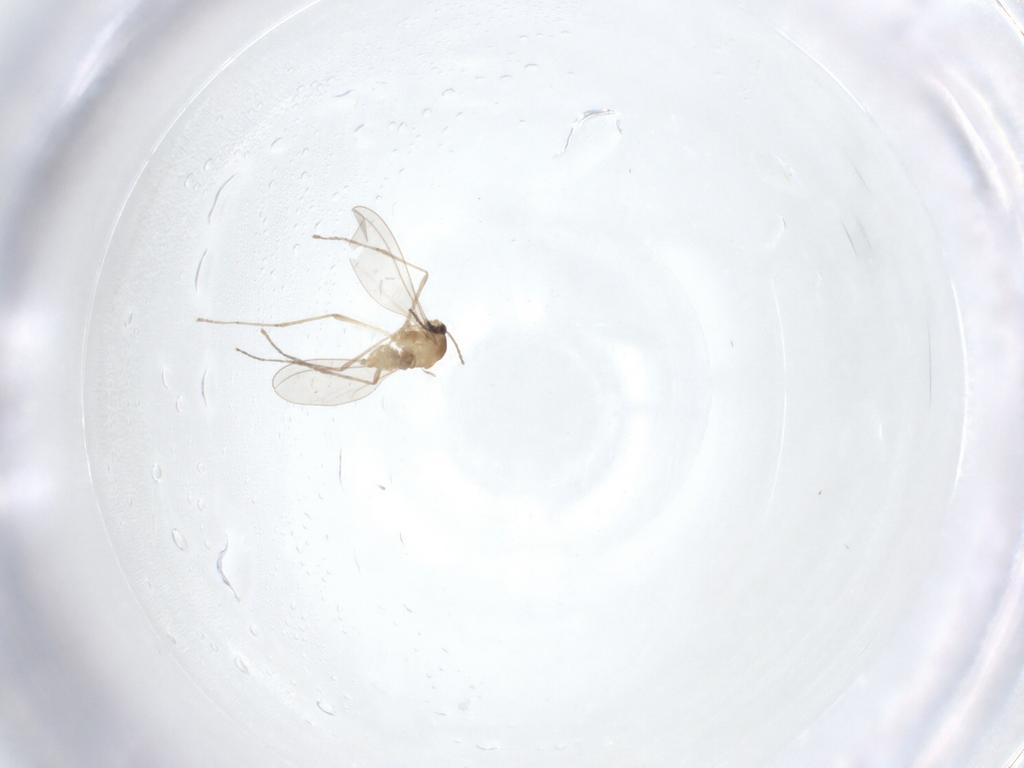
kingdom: Animalia
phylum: Arthropoda
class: Insecta
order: Diptera
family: Cecidomyiidae
